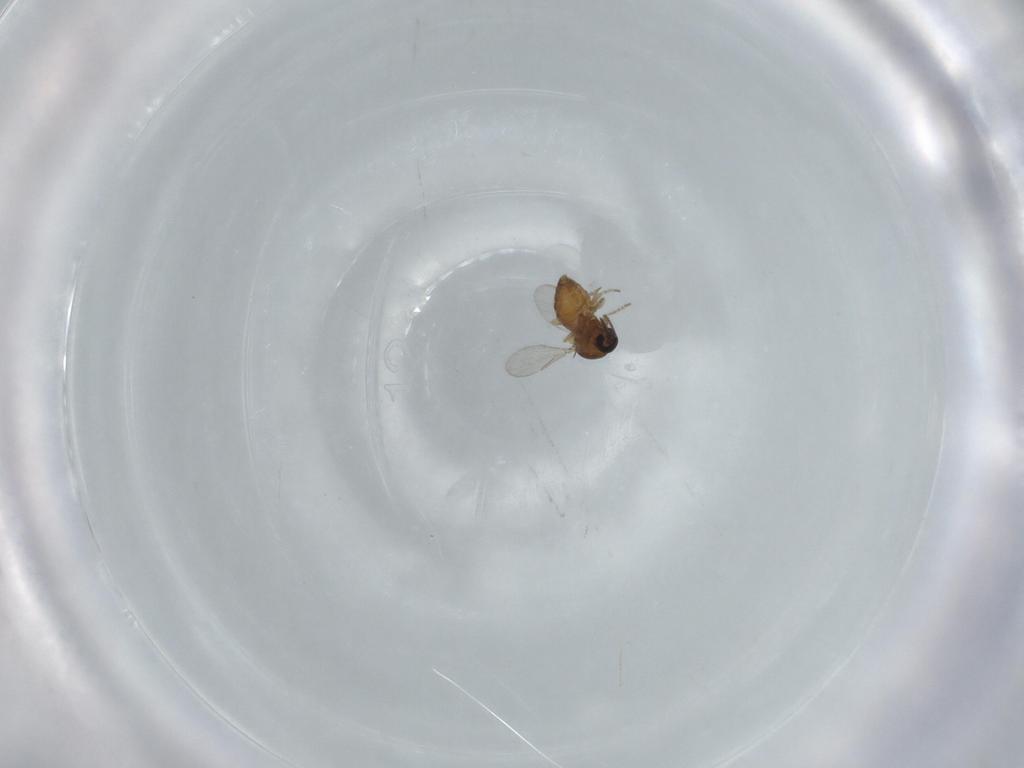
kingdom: Animalia
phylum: Arthropoda
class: Insecta
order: Diptera
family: Ceratopogonidae
